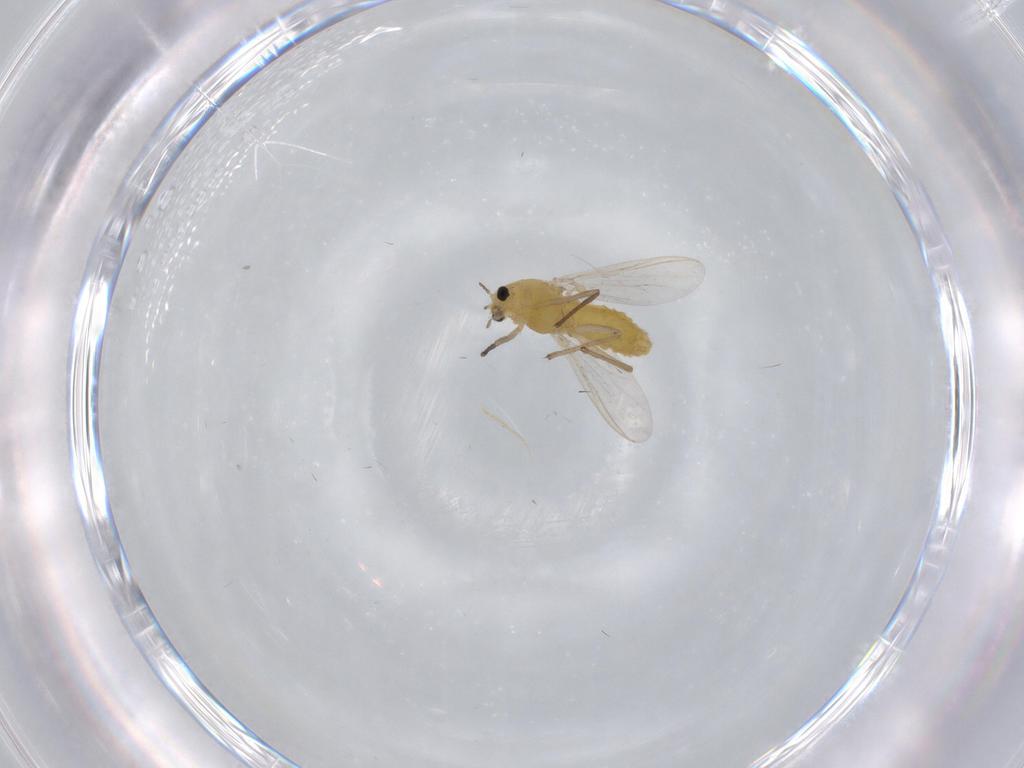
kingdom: Animalia
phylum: Arthropoda
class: Insecta
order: Diptera
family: Chironomidae
